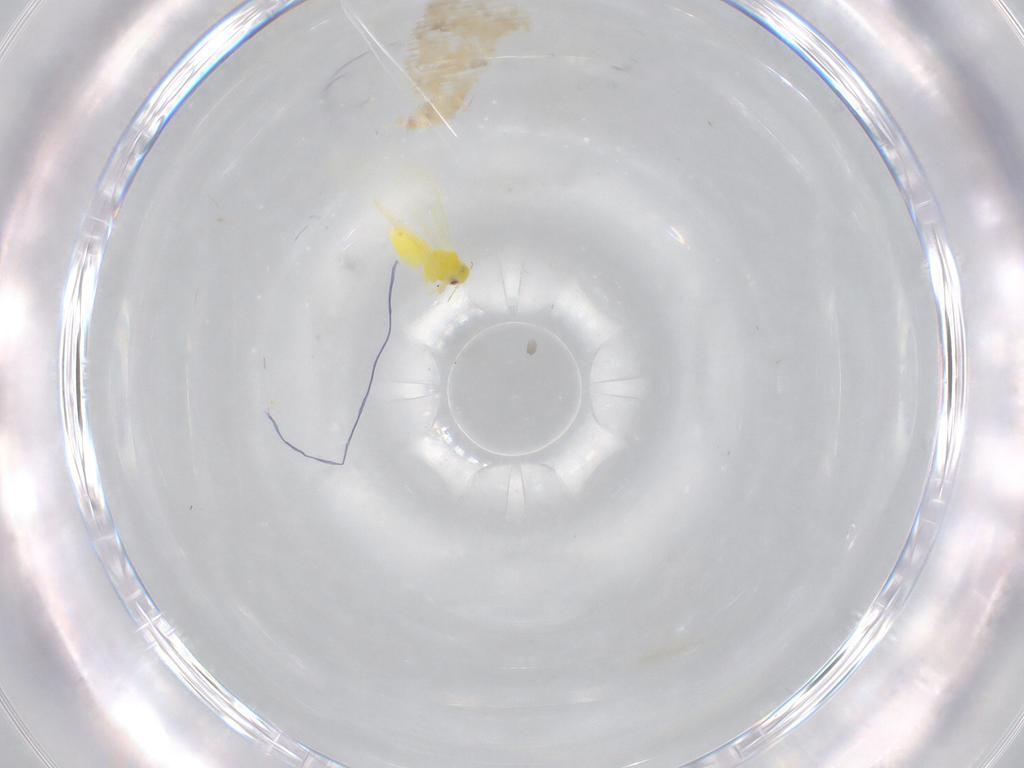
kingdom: Animalia
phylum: Arthropoda
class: Insecta
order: Hemiptera
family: Aleyrodidae
